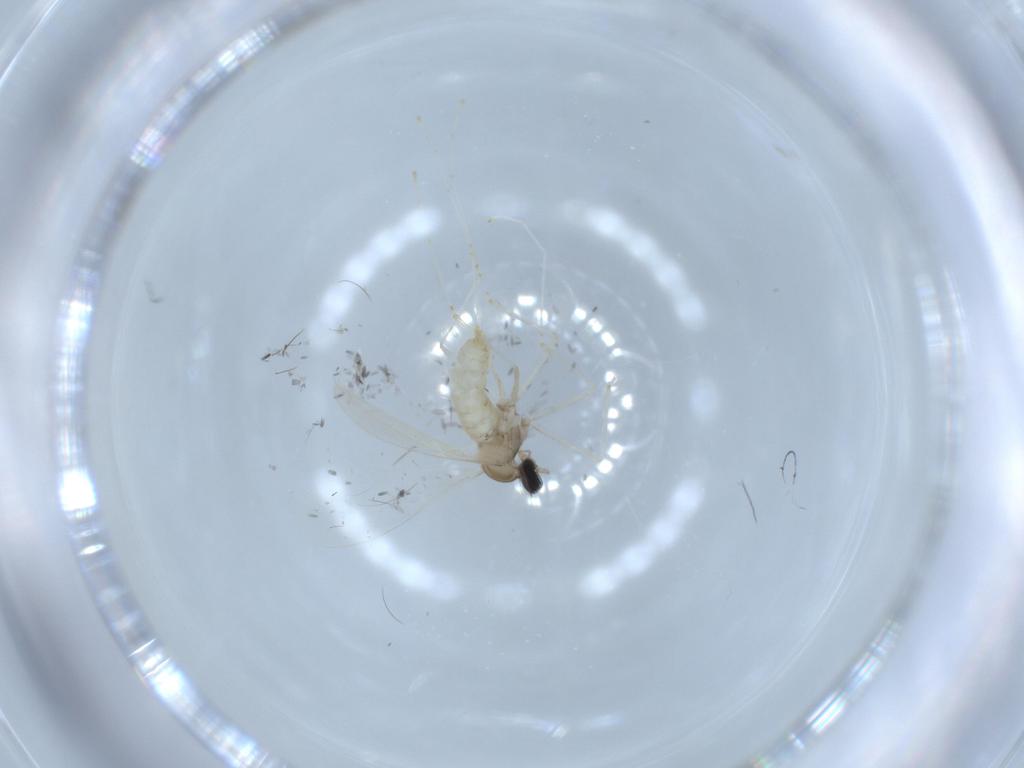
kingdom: Animalia
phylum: Arthropoda
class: Insecta
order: Diptera
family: Cecidomyiidae
